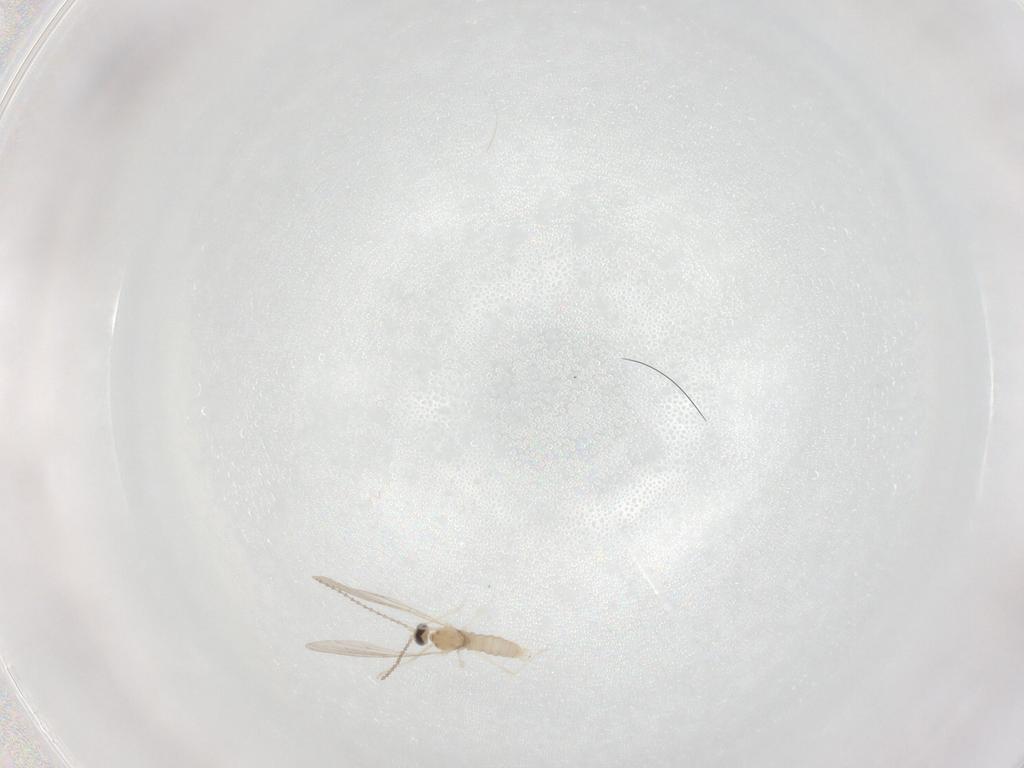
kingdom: Animalia
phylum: Arthropoda
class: Insecta
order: Diptera
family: Cecidomyiidae
